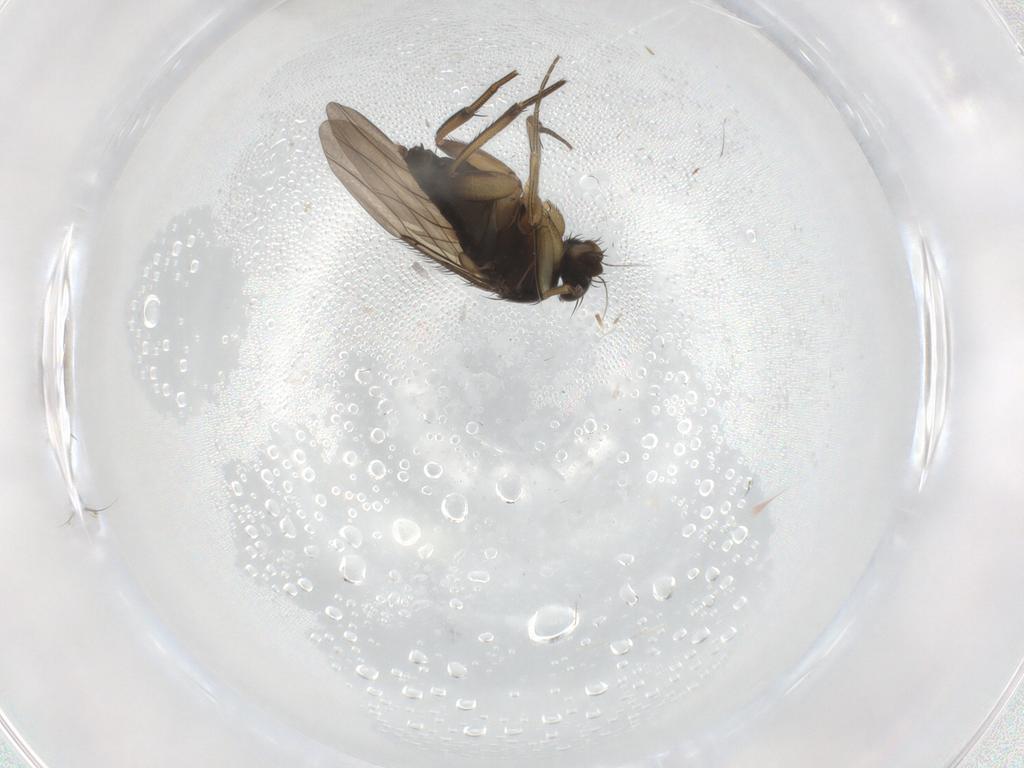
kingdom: Animalia
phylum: Arthropoda
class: Insecta
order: Diptera
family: Phoridae
